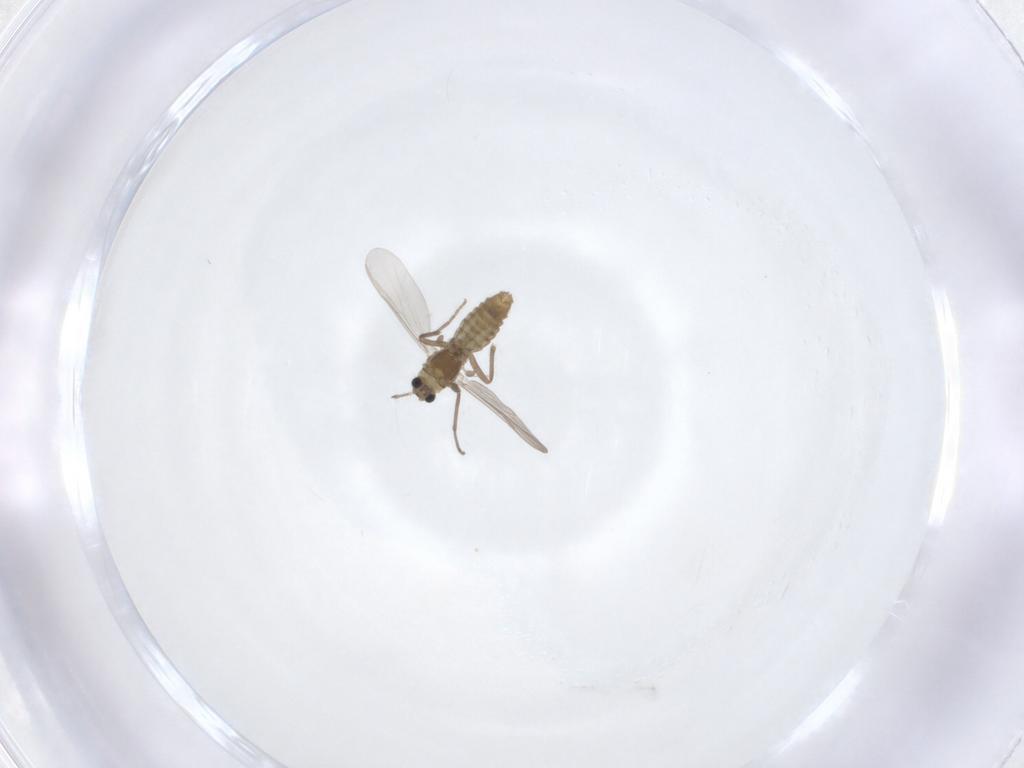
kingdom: Animalia
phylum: Arthropoda
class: Insecta
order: Diptera
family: Chironomidae
